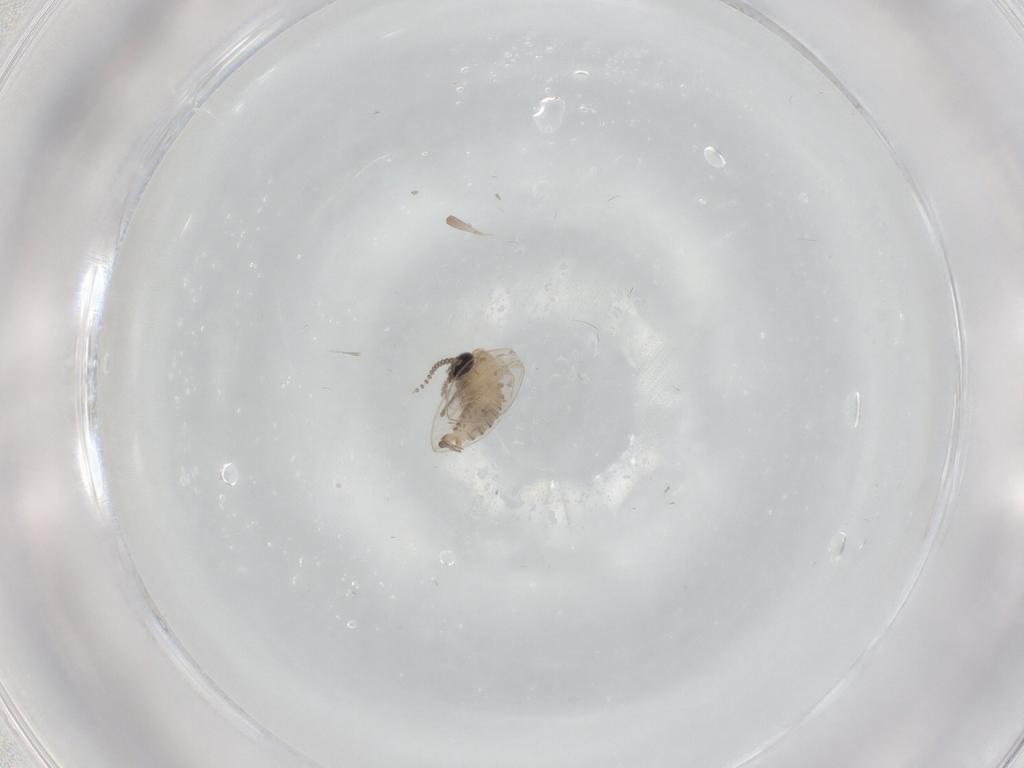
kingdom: Animalia
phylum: Arthropoda
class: Insecta
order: Diptera
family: Psychodidae
